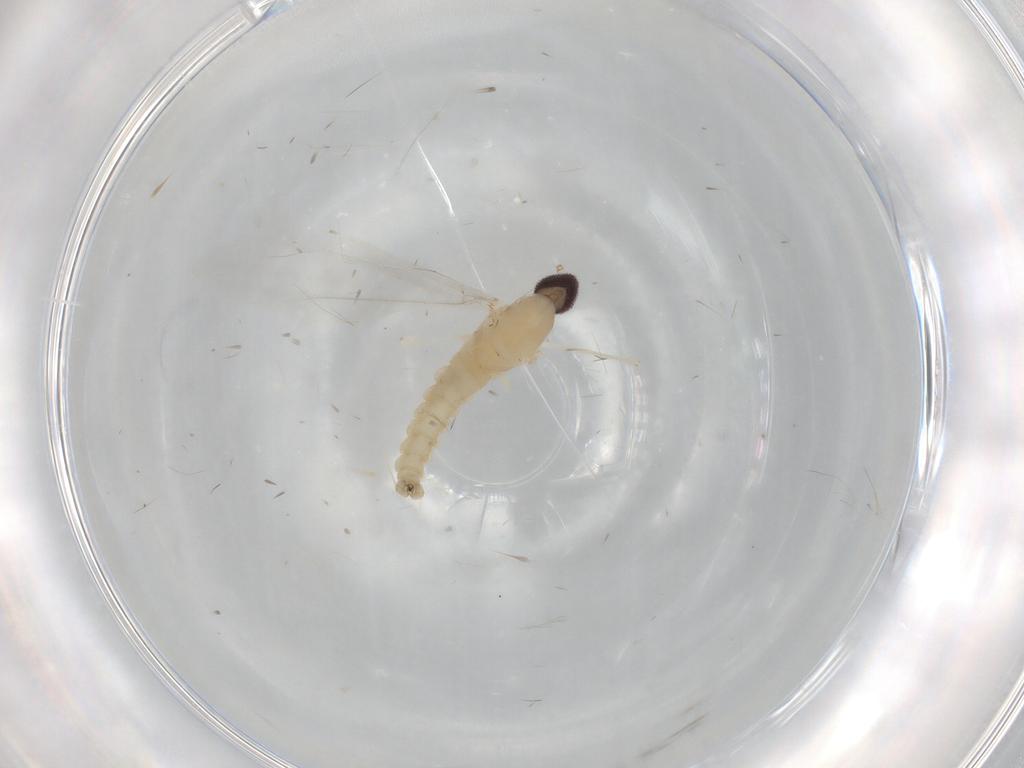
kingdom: Animalia
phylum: Arthropoda
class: Insecta
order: Diptera
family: Cecidomyiidae
